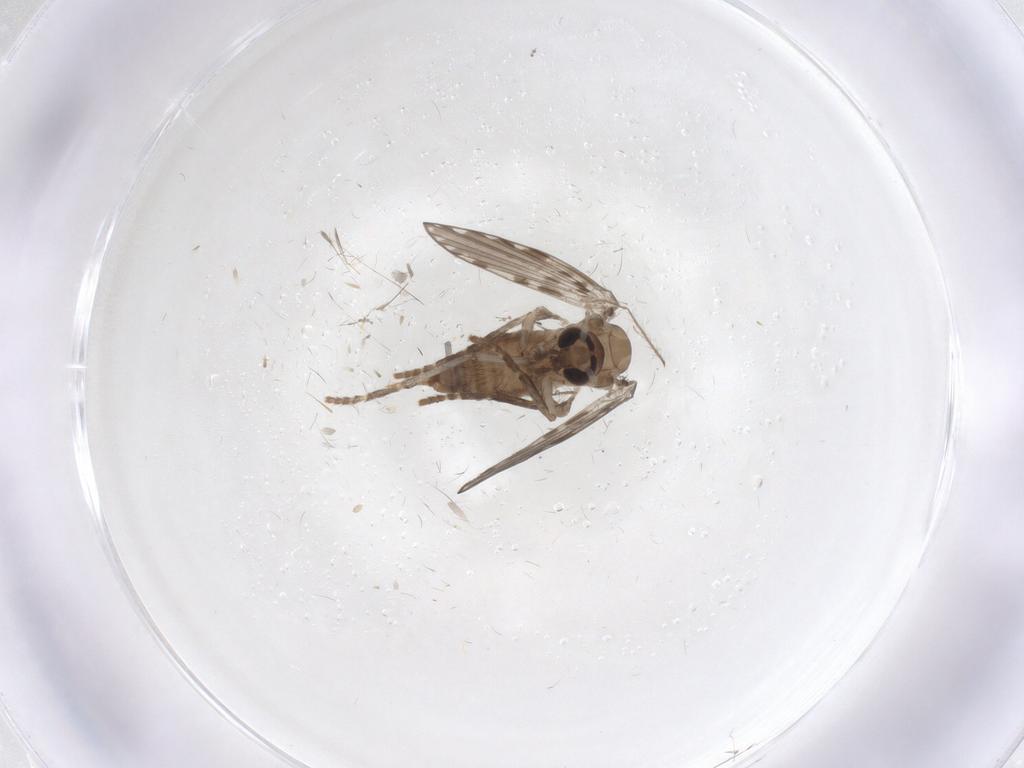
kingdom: Animalia
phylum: Arthropoda
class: Insecta
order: Diptera
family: Psychodidae
